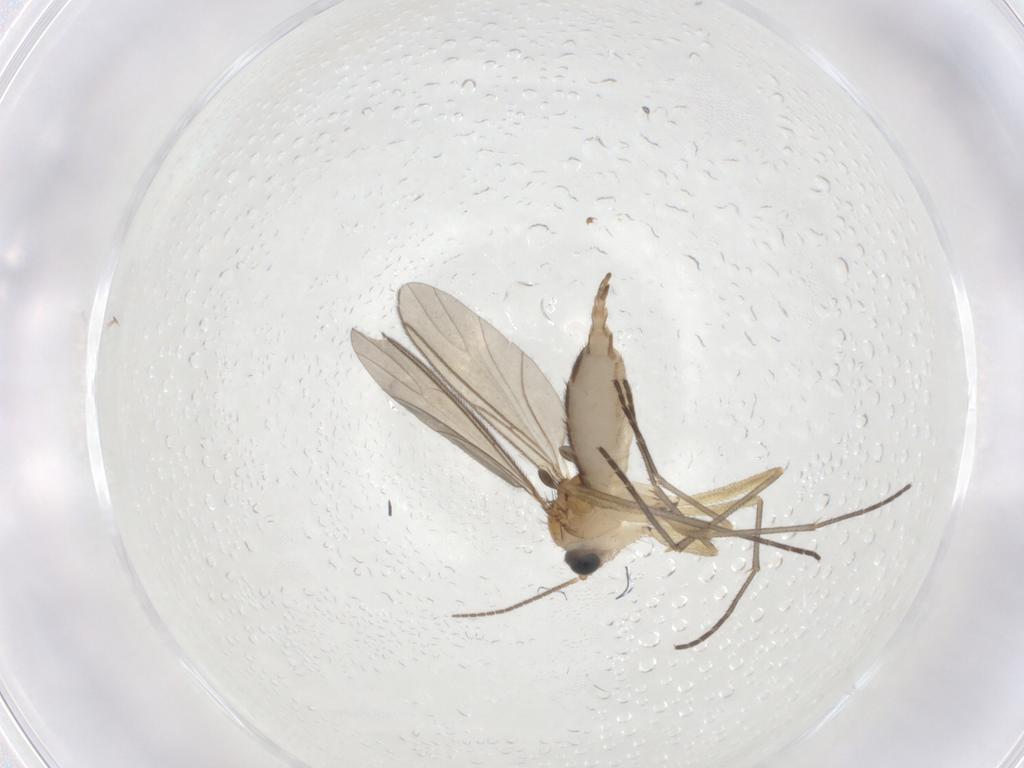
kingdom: Animalia
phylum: Arthropoda
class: Insecta
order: Diptera
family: Sciaridae
